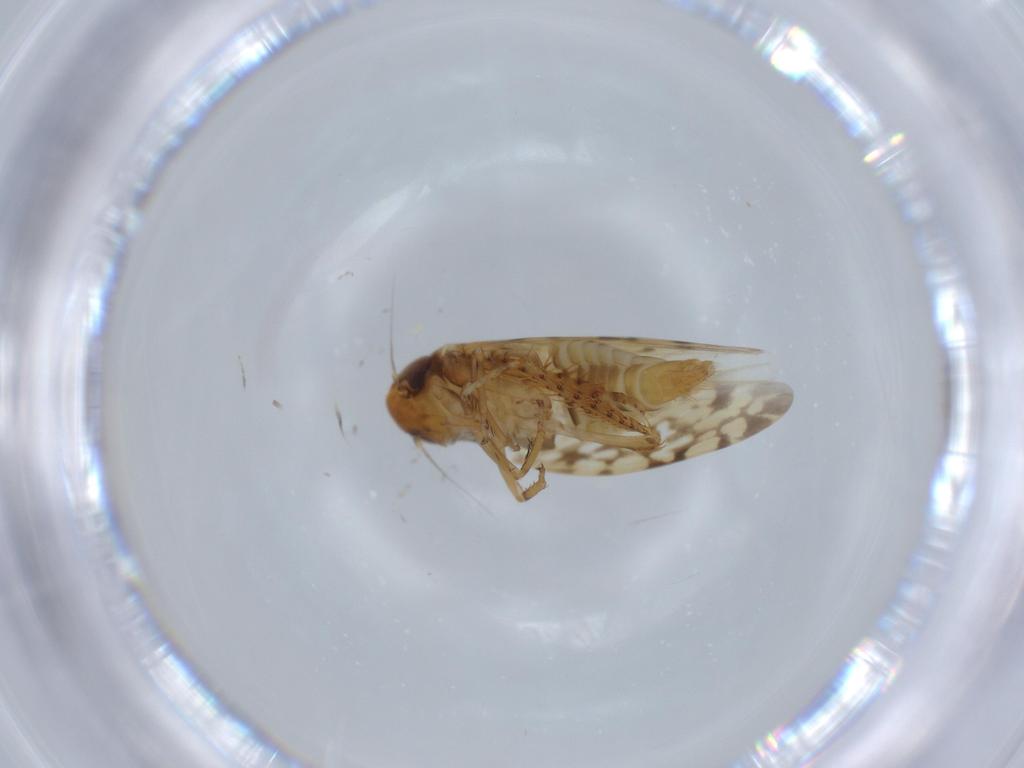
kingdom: Animalia
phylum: Arthropoda
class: Insecta
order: Hemiptera
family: Cicadellidae
